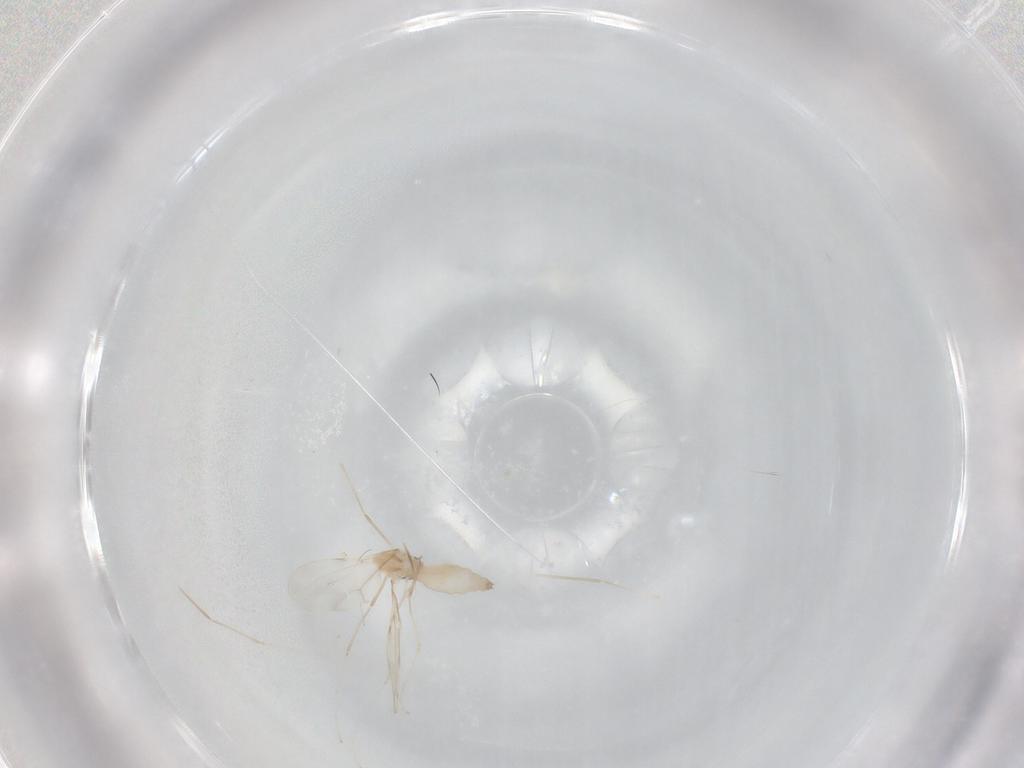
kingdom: Animalia
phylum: Arthropoda
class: Insecta
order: Diptera
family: Cecidomyiidae
